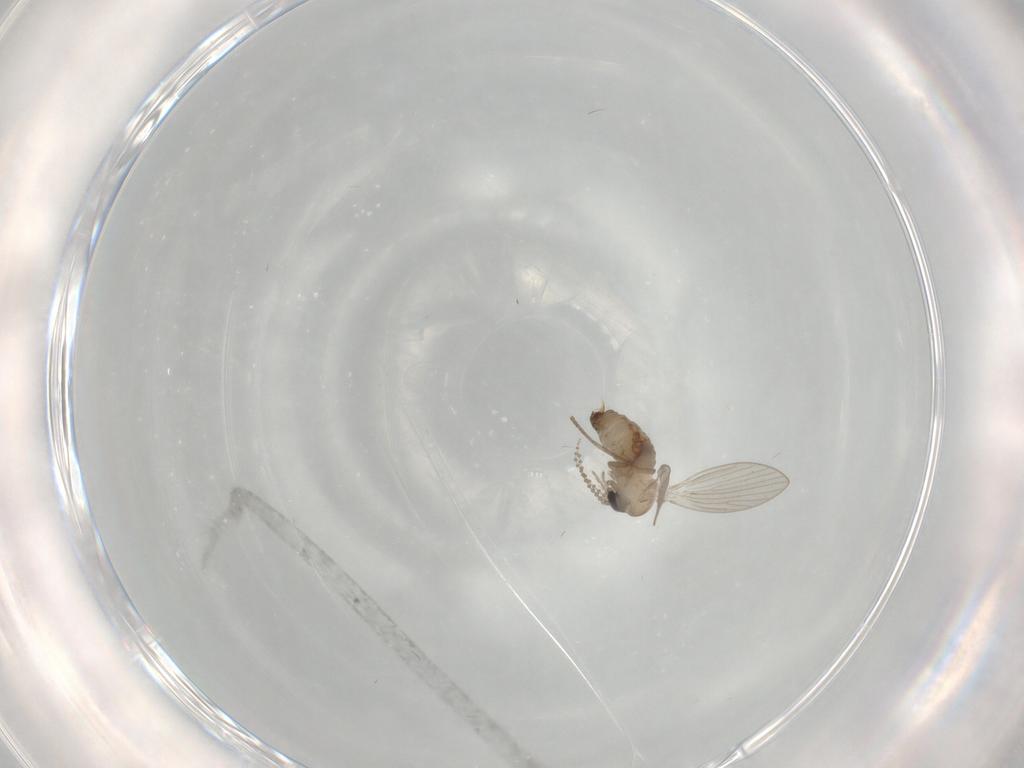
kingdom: Animalia
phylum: Arthropoda
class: Insecta
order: Diptera
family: Psychodidae
